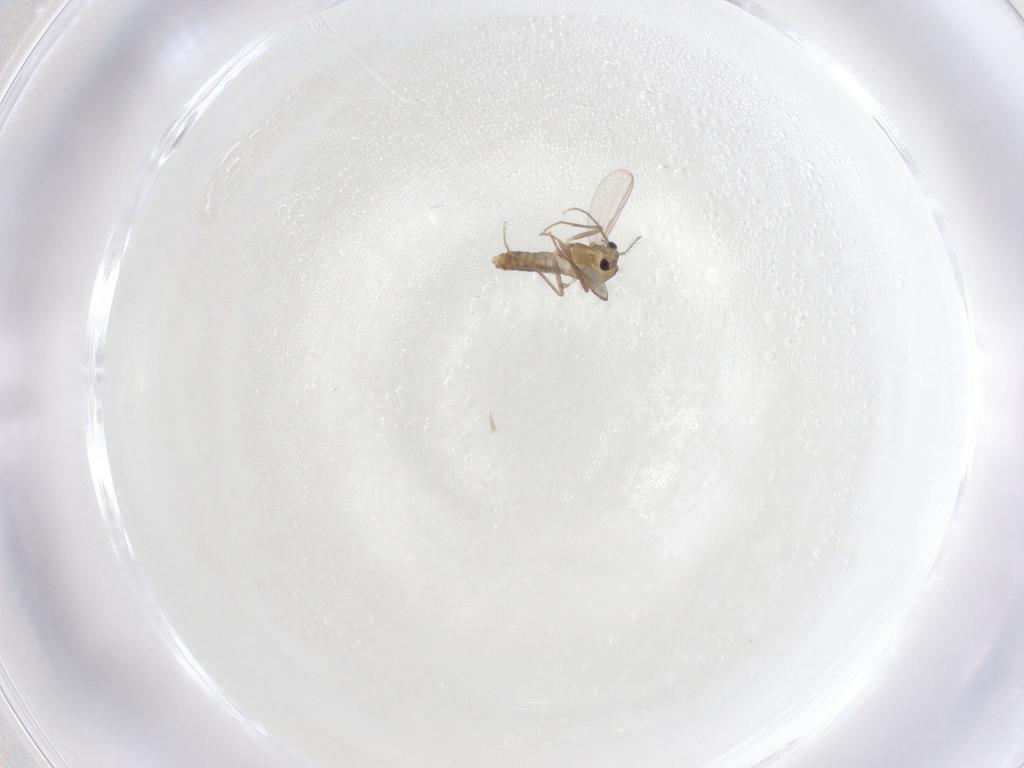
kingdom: Animalia
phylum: Arthropoda
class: Insecta
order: Diptera
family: Chironomidae
